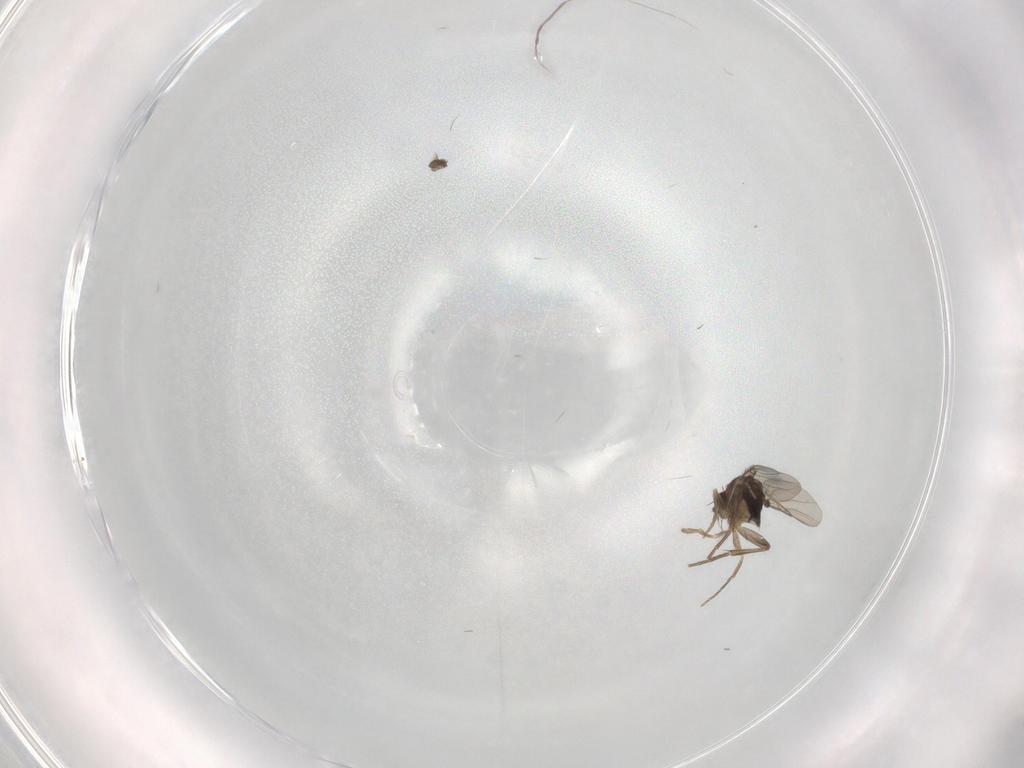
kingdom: Animalia
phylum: Arthropoda
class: Insecta
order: Diptera
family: Phoridae
